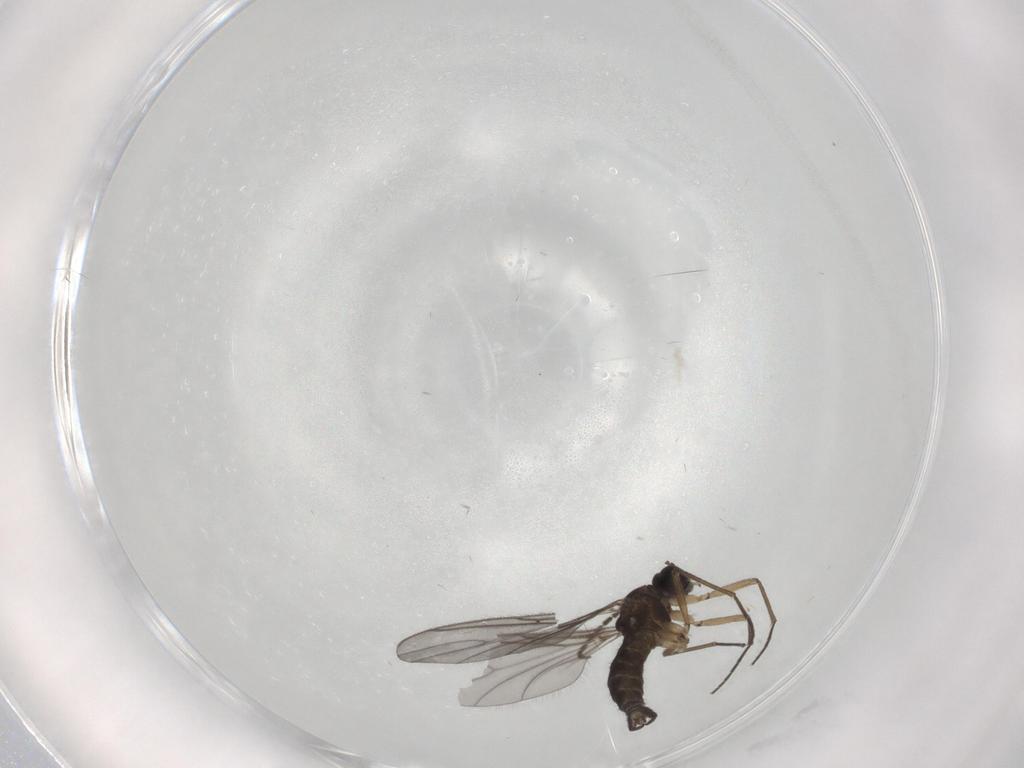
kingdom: Animalia
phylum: Arthropoda
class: Insecta
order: Diptera
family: Sciaridae
